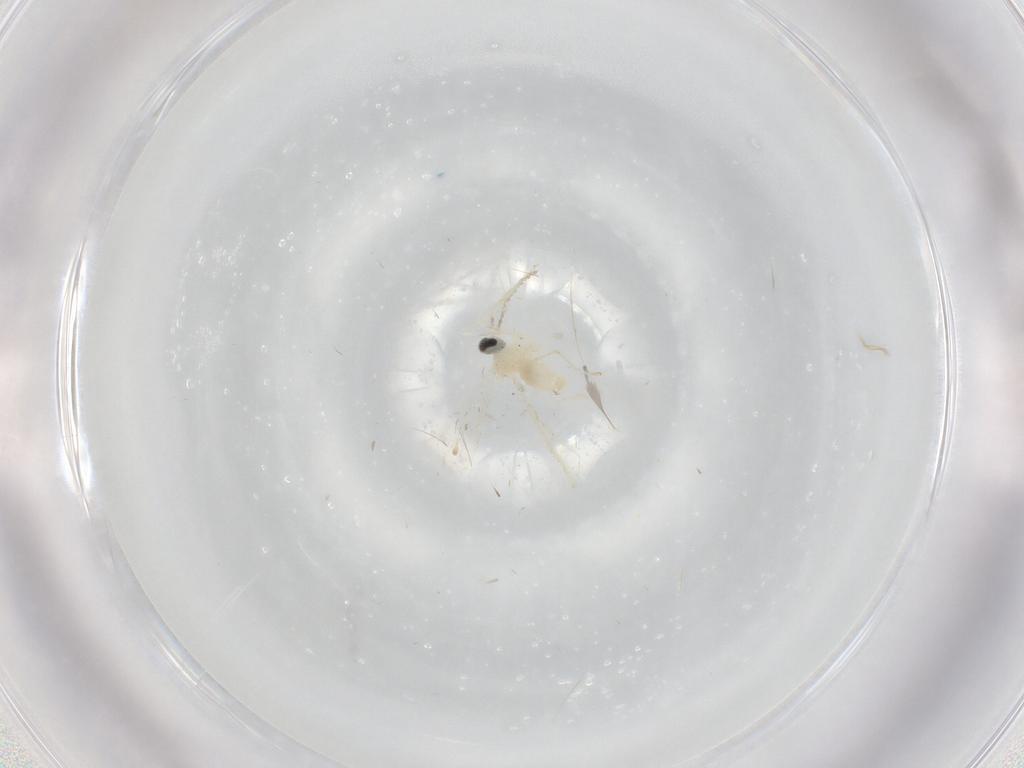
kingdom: Animalia
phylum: Arthropoda
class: Insecta
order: Diptera
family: Cecidomyiidae
